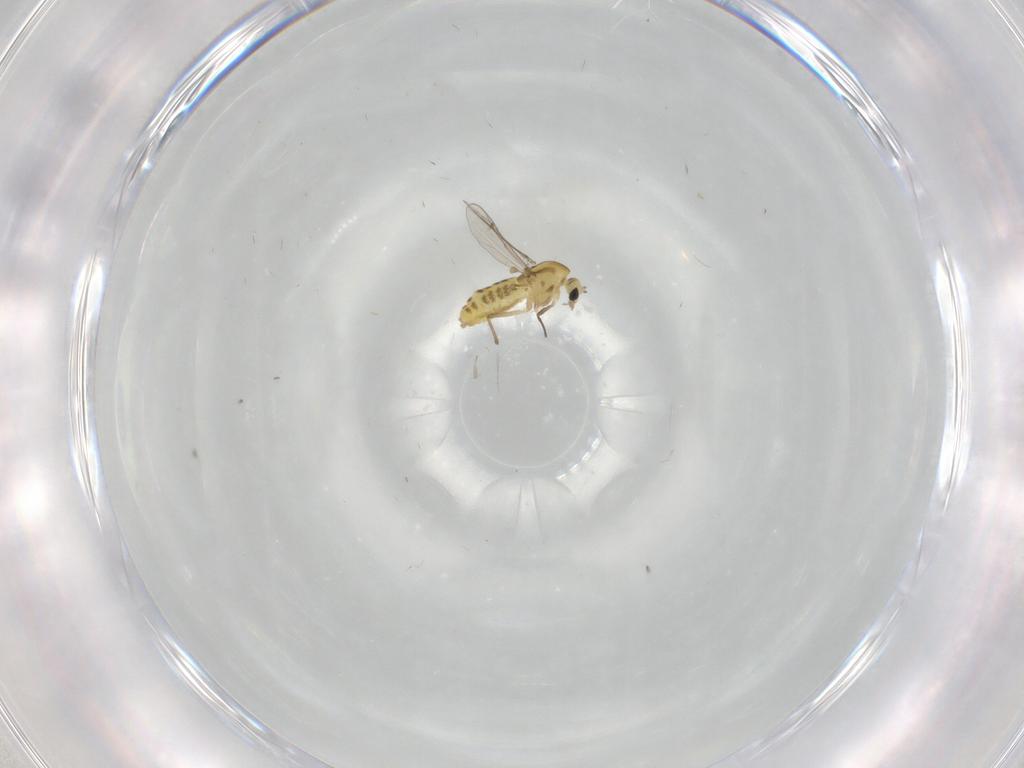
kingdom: Animalia
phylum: Arthropoda
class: Insecta
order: Diptera
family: Chironomidae
